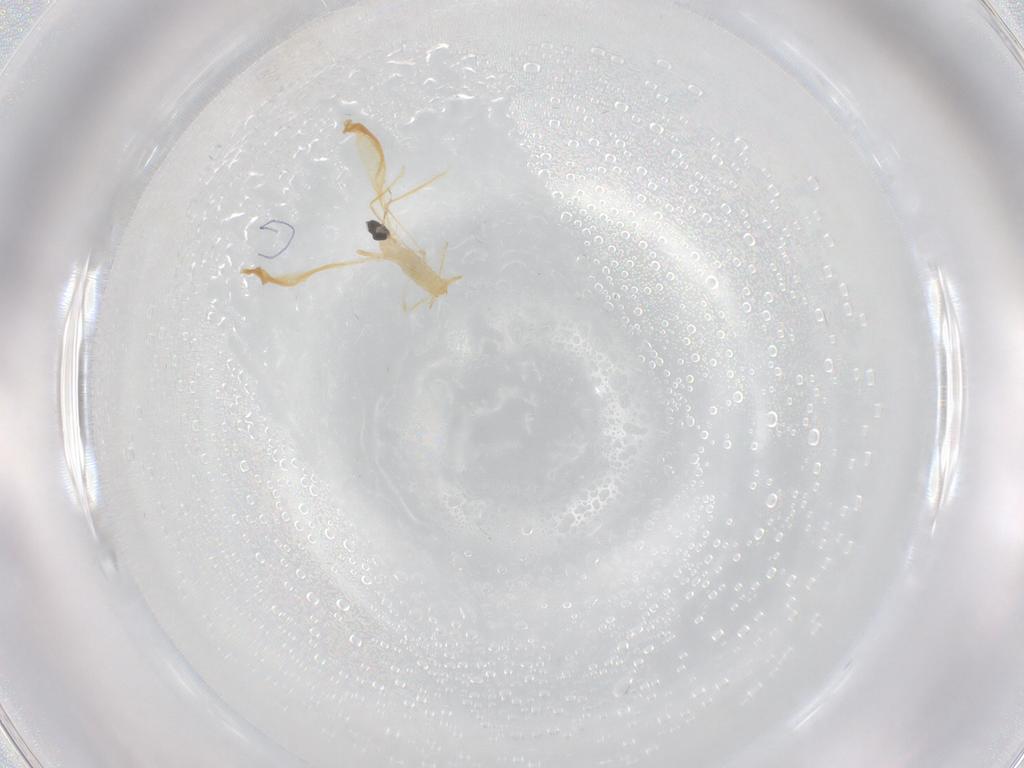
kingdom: Animalia
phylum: Arthropoda
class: Insecta
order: Diptera
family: Cecidomyiidae
